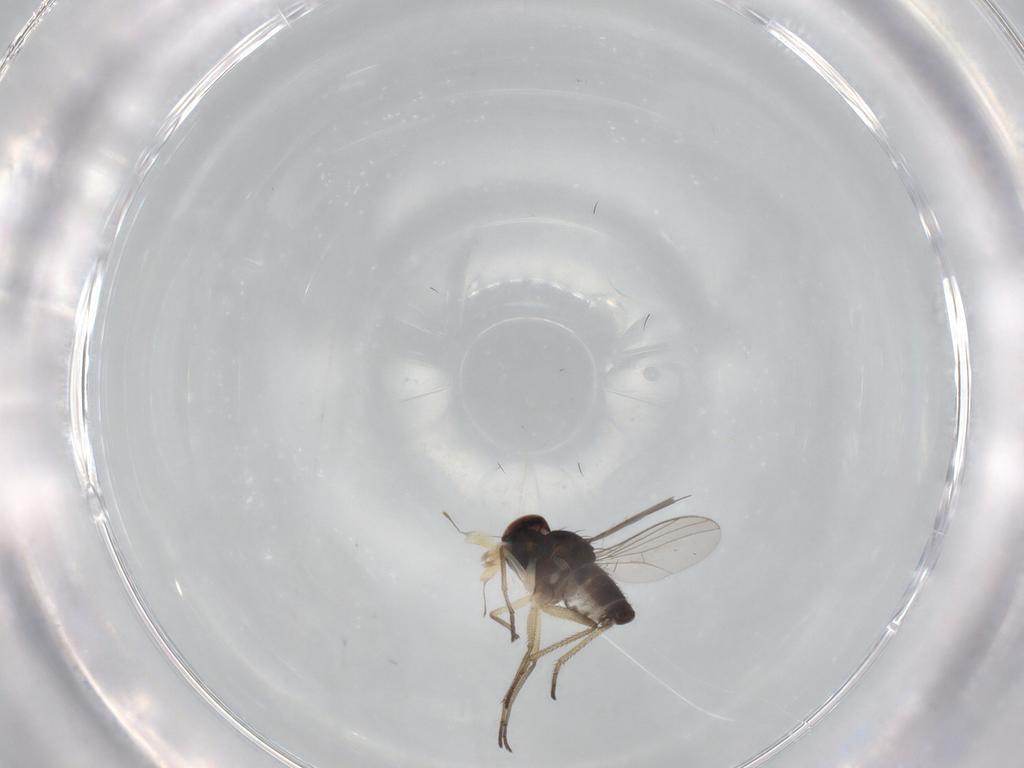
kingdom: Animalia
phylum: Arthropoda
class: Insecta
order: Diptera
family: Dolichopodidae
